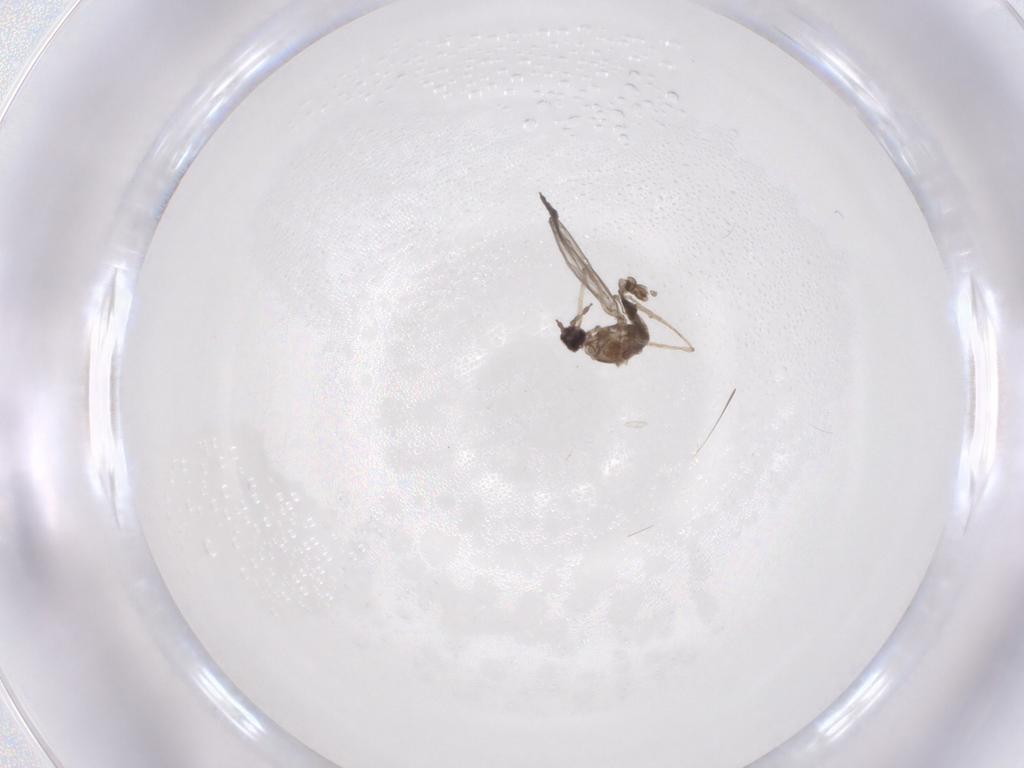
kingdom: Animalia
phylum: Arthropoda
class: Insecta
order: Diptera
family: Cecidomyiidae
